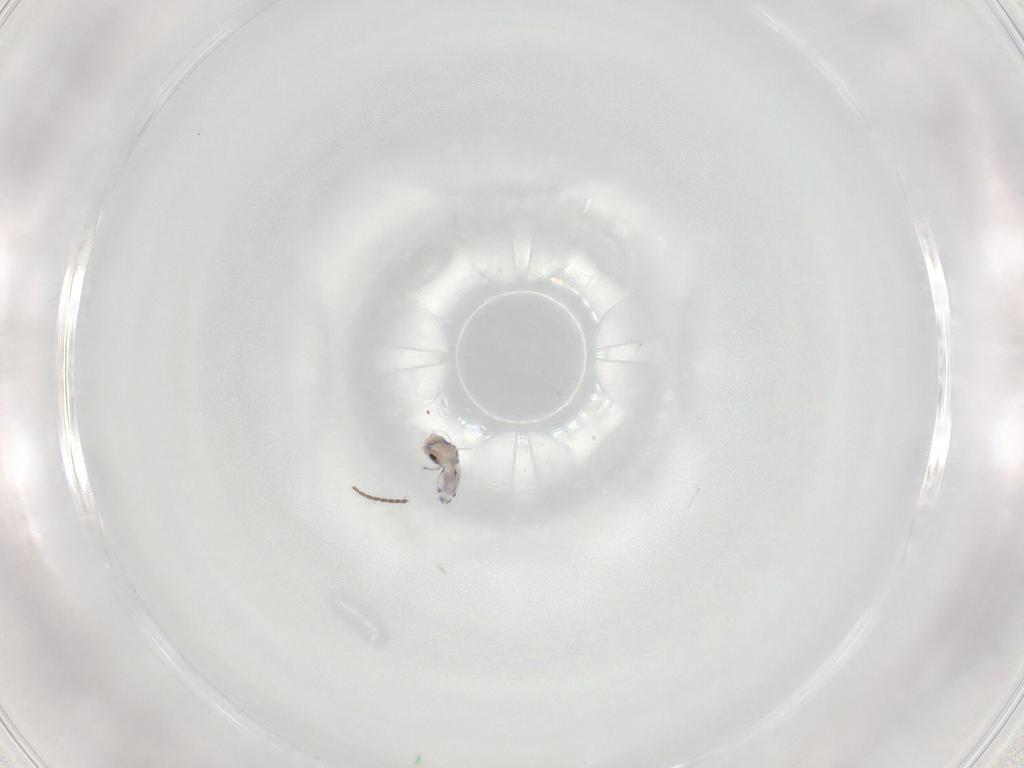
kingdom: Animalia
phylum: Arthropoda
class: Collembola
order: Entomobryomorpha
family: Entomobryidae
